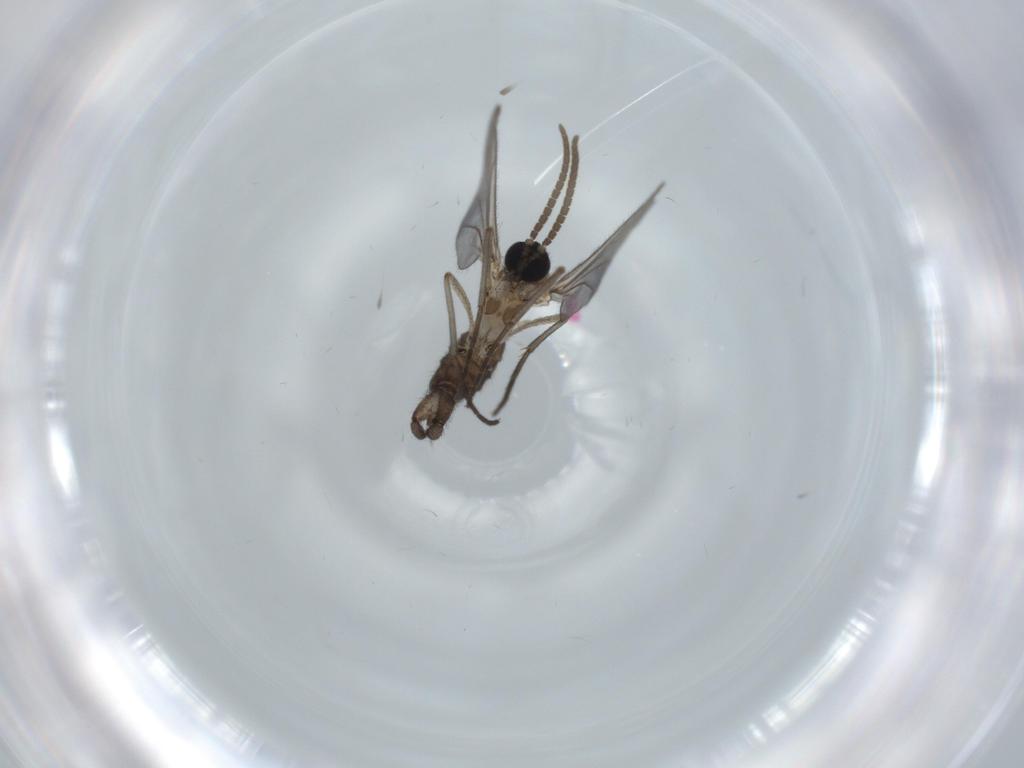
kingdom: Animalia
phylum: Arthropoda
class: Insecta
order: Diptera
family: Sciaridae
